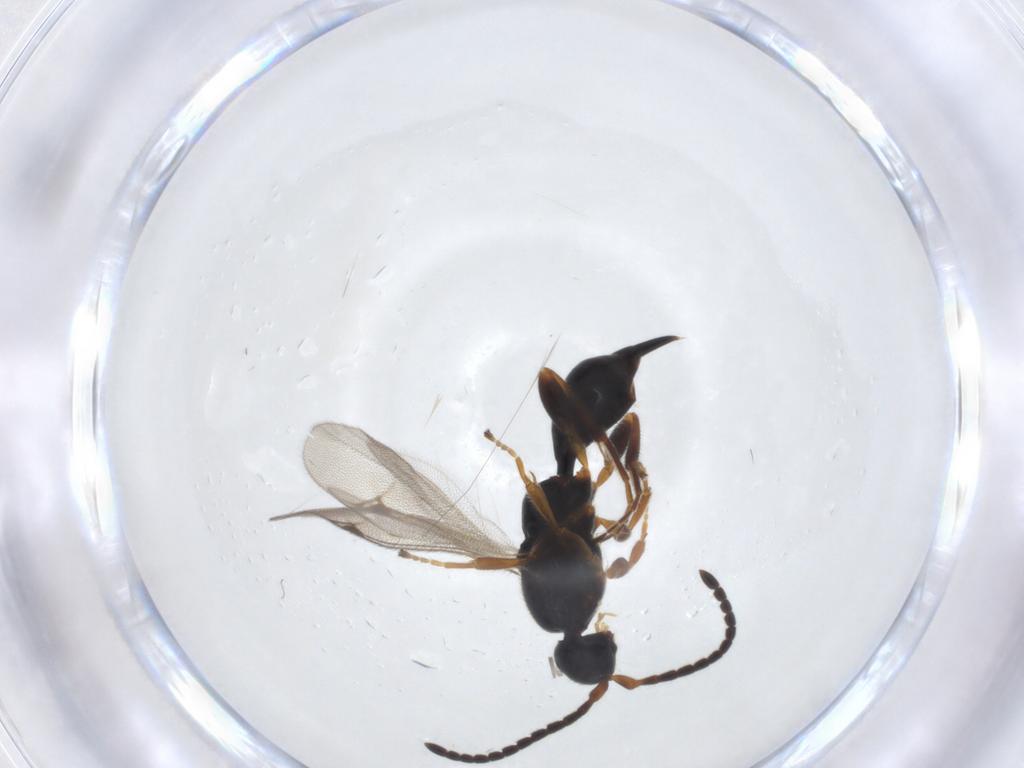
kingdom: Animalia
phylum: Arthropoda
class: Insecta
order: Hymenoptera
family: Proctotrupidae
